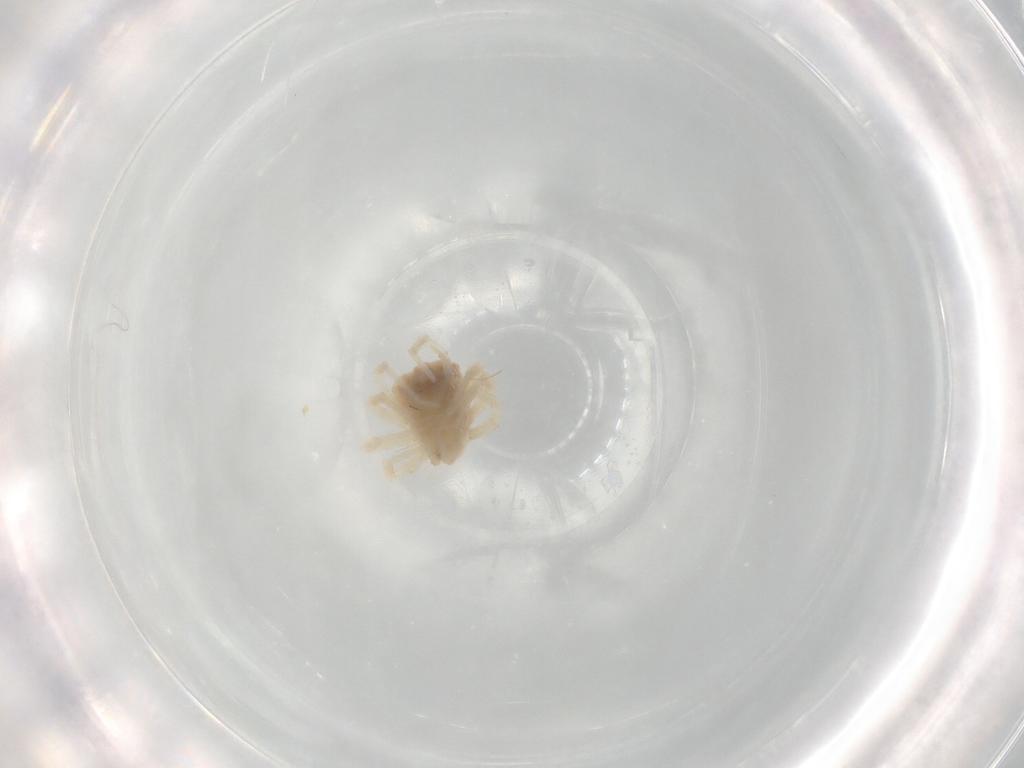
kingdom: Animalia
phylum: Arthropoda
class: Arachnida
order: Trombidiformes
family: Anystidae
